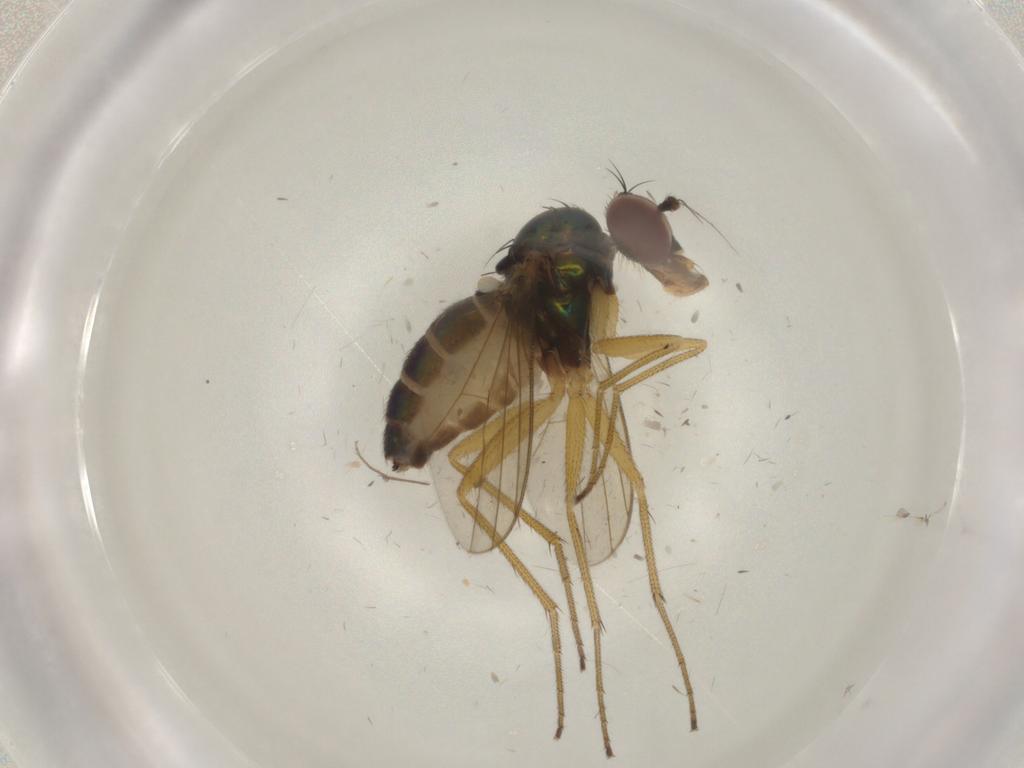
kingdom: Animalia
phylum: Arthropoda
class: Insecta
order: Diptera
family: Dolichopodidae
